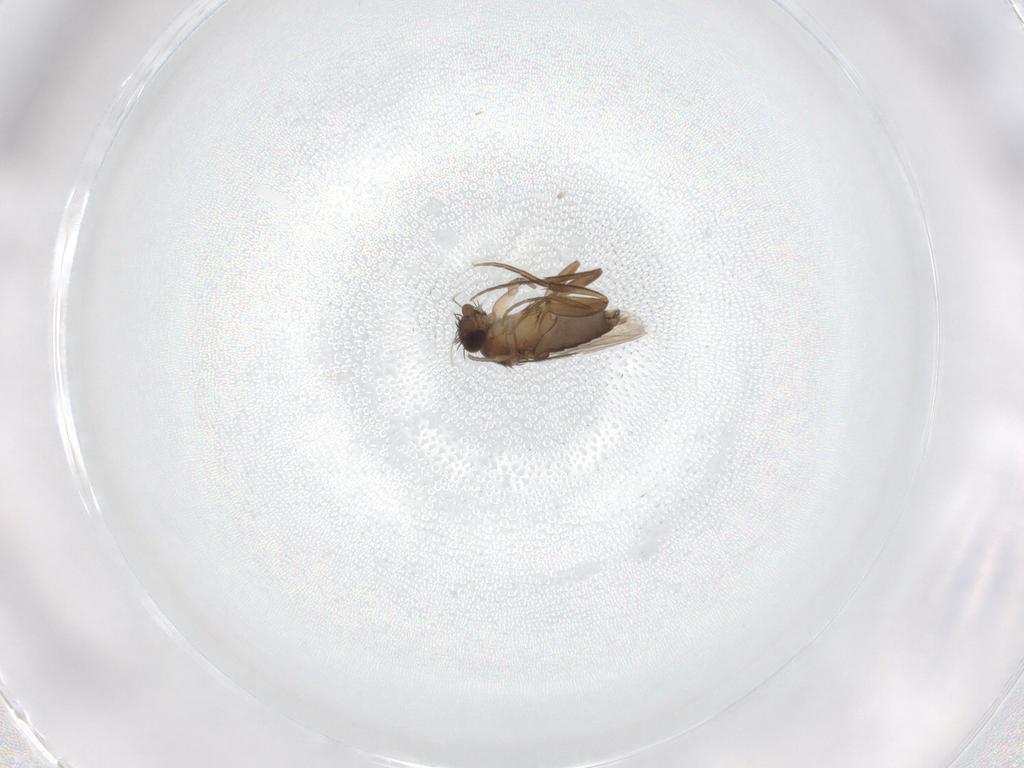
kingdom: Animalia
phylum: Arthropoda
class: Insecta
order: Diptera
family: Phoridae
